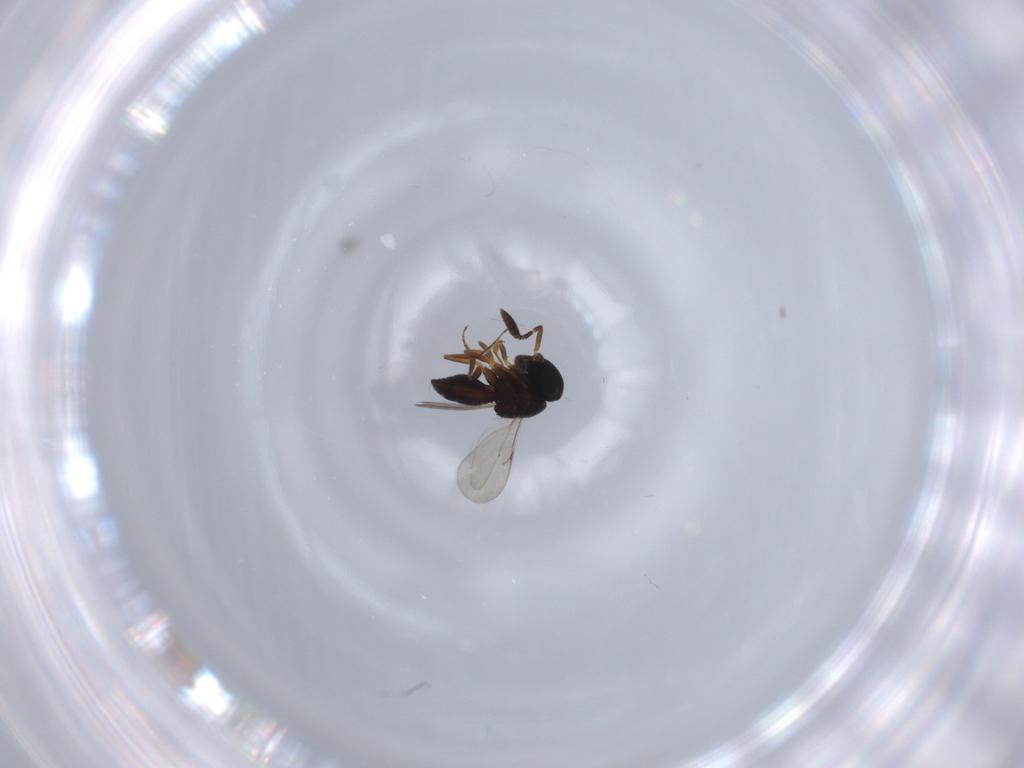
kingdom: Animalia
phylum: Arthropoda
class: Insecta
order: Hymenoptera
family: Scelionidae
